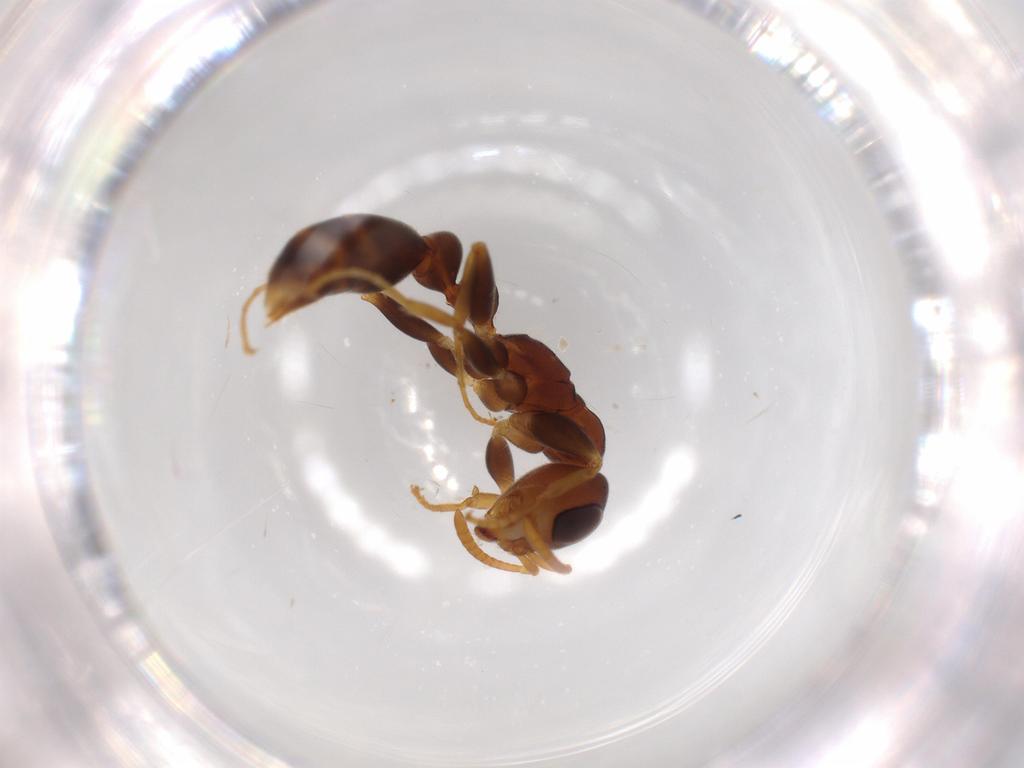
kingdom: Animalia
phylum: Arthropoda
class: Insecta
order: Hymenoptera
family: Formicidae
